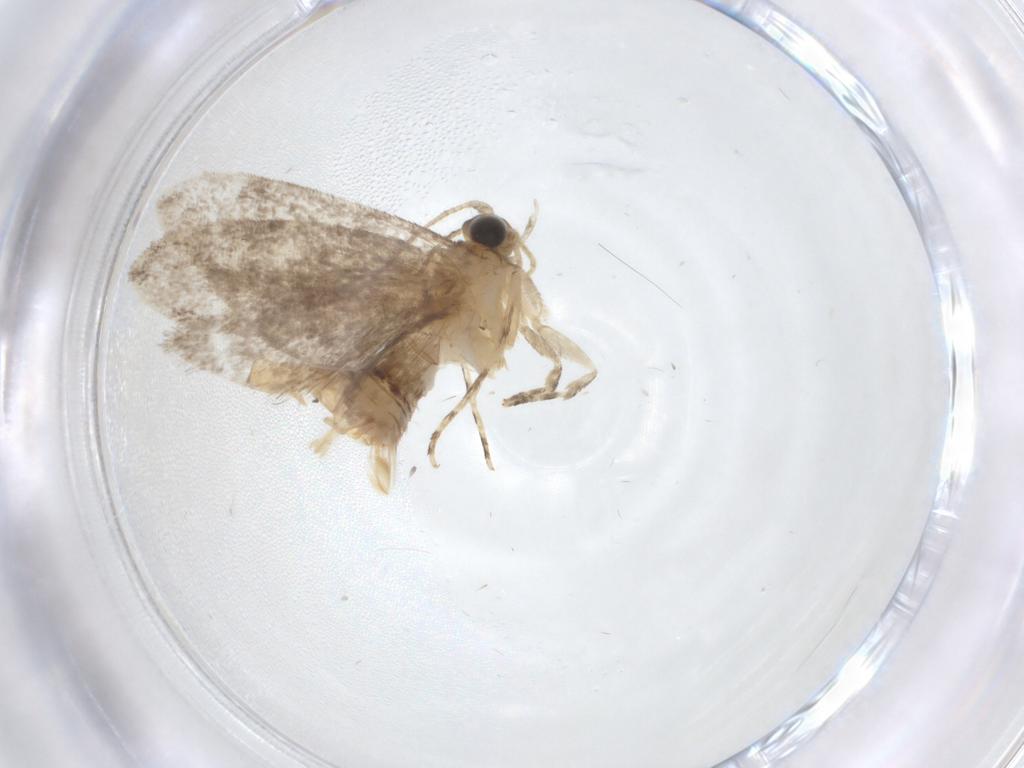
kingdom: Animalia
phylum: Arthropoda
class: Insecta
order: Lepidoptera
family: Tineidae
